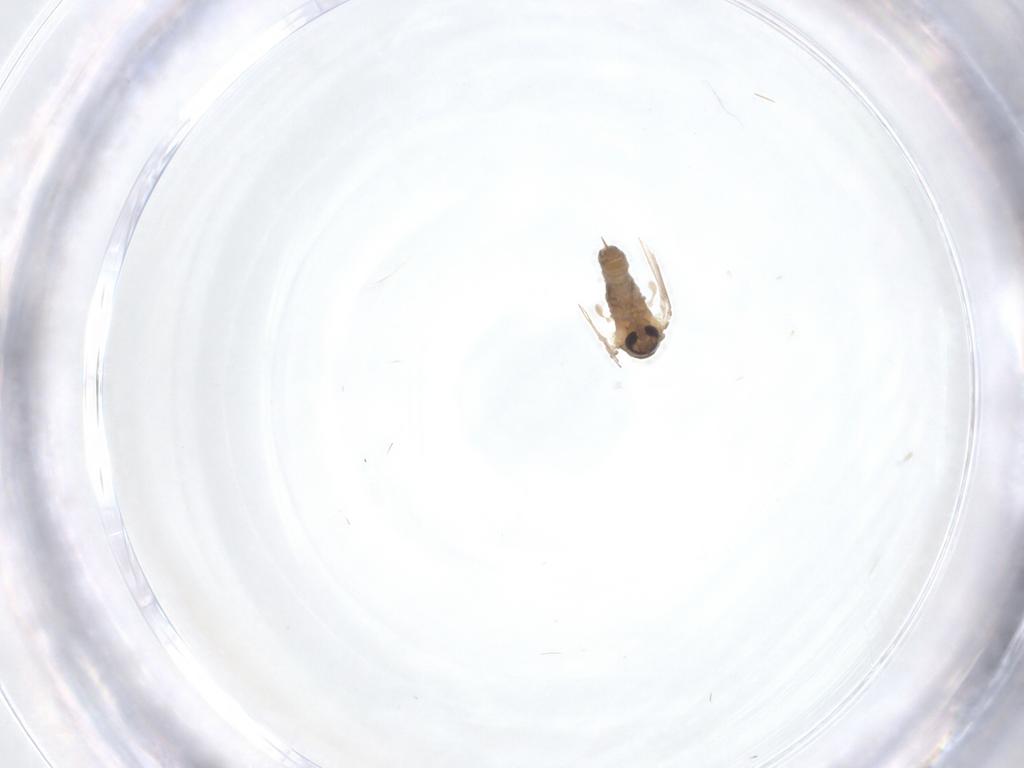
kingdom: Animalia
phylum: Arthropoda
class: Insecta
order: Diptera
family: Psychodidae
